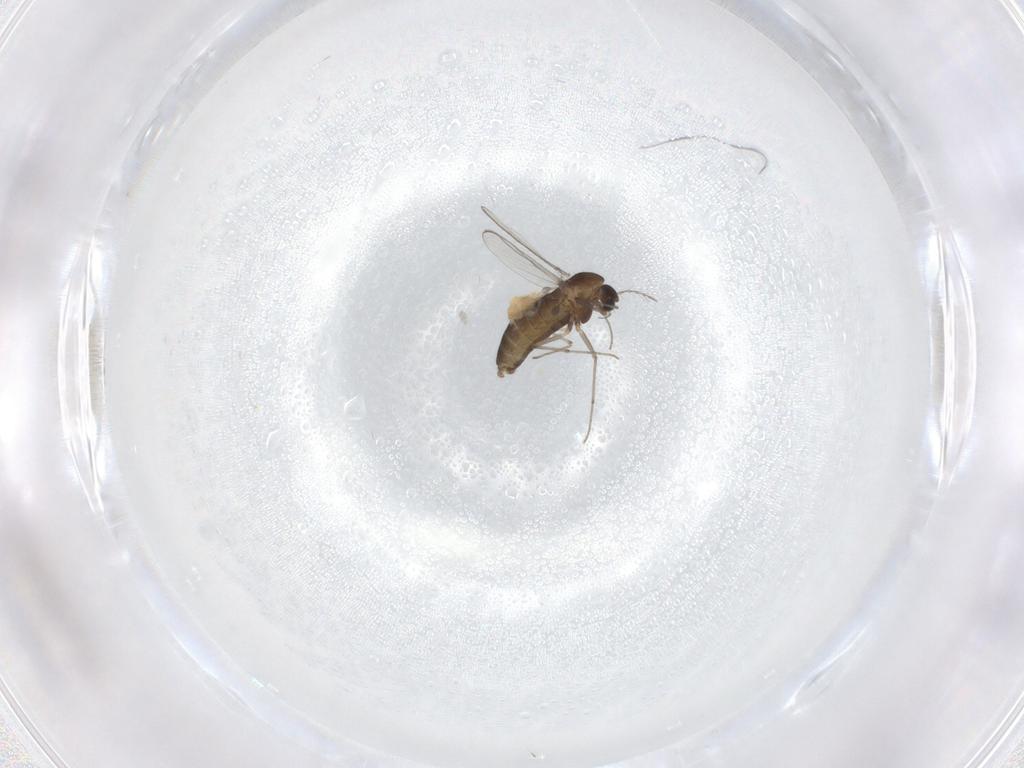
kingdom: Animalia
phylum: Arthropoda
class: Insecta
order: Diptera
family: Chironomidae
